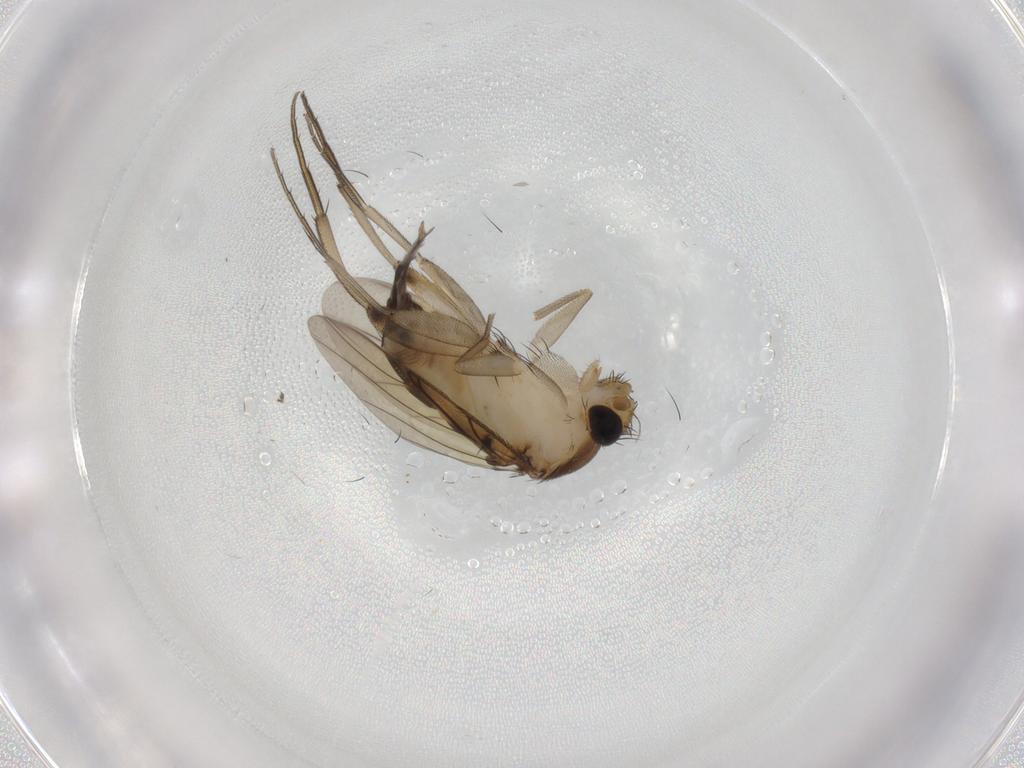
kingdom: Animalia
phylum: Arthropoda
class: Insecta
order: Diptera
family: Phoridae
